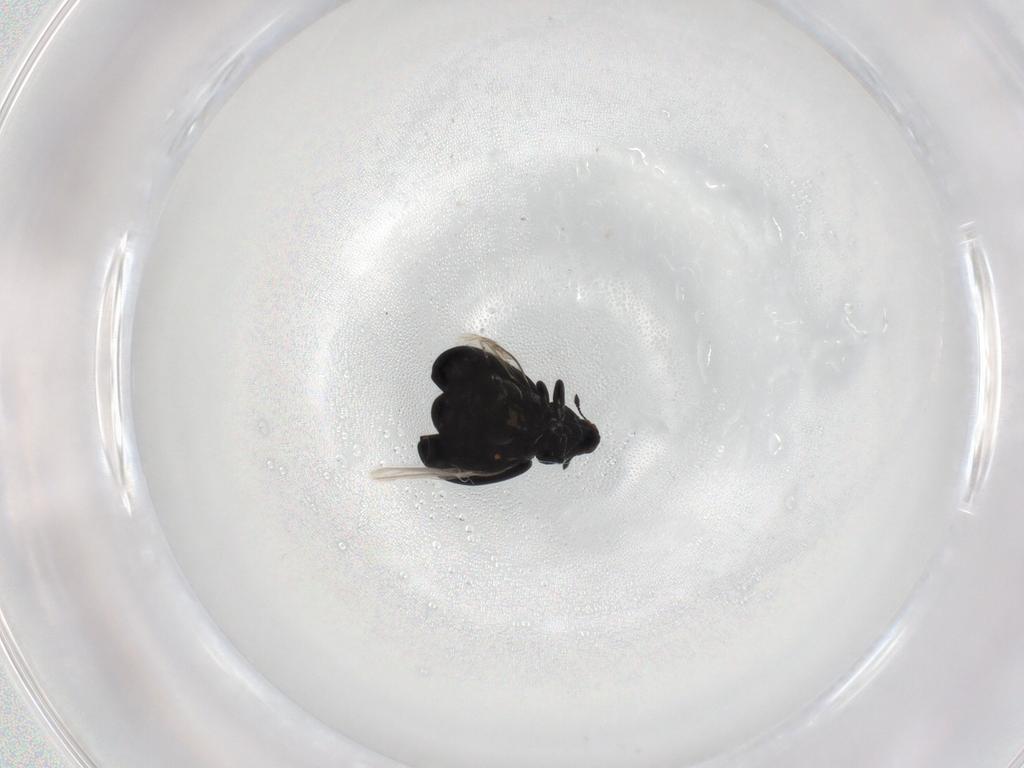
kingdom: Animalia
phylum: Arthropoda
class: Insecta
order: Coleoptera
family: Curculionidae
